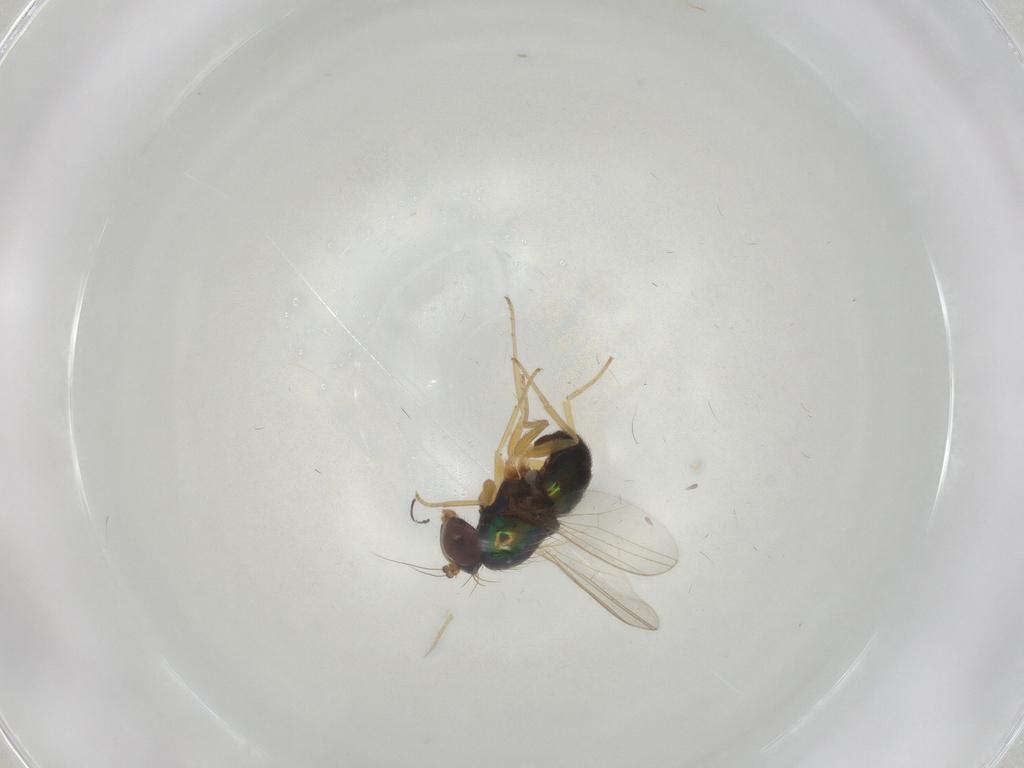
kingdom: Animalia
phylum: Arthropoda
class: Insecta
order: Diptera
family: Dolichopodidae
